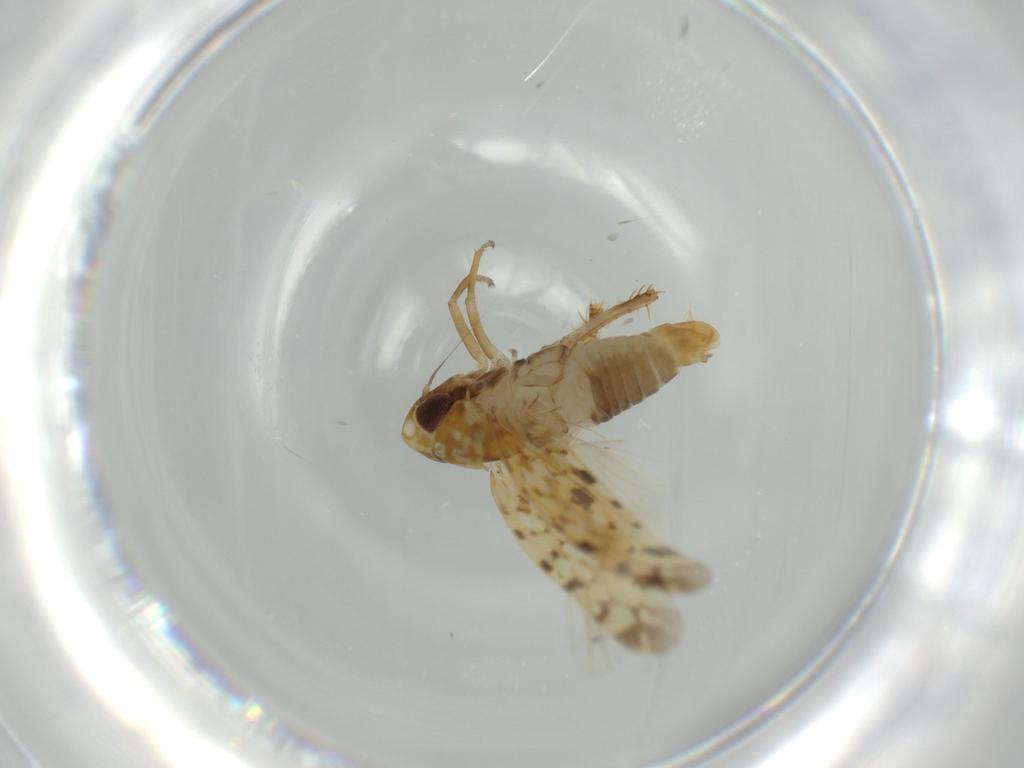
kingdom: Animalia
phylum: Arthropoda
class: Insecta
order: Hemiptera
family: Cicadellidae
